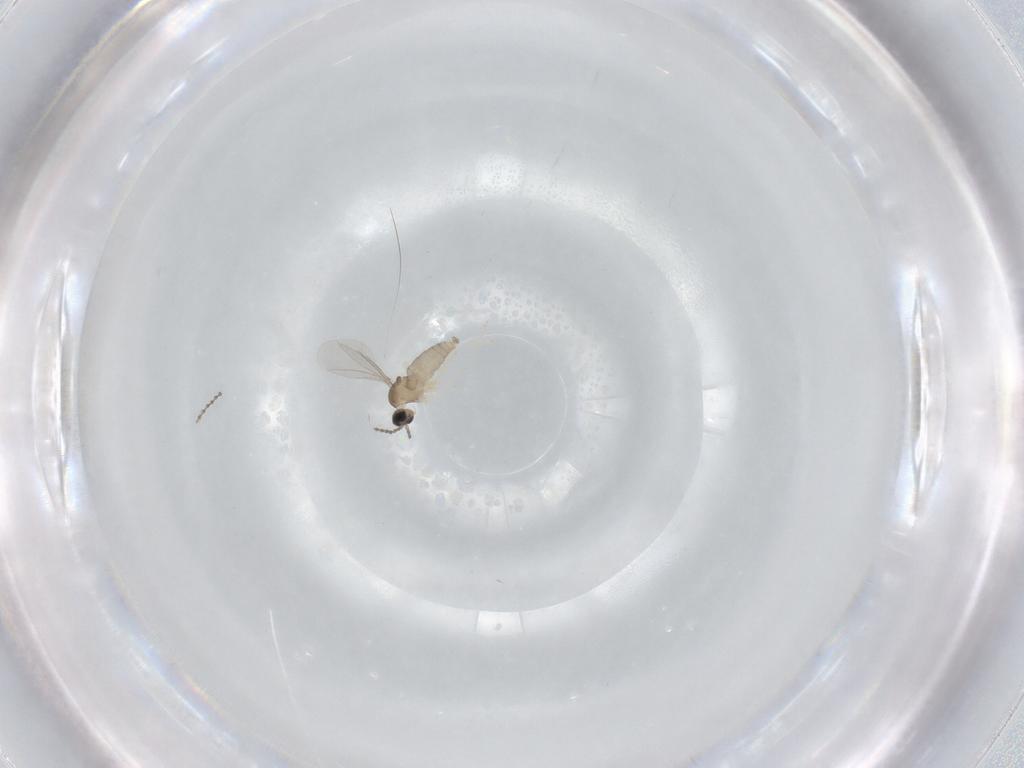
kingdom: Animalia
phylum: Arthropoda
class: Insecta
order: Diptera
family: Cecidomyiidae
